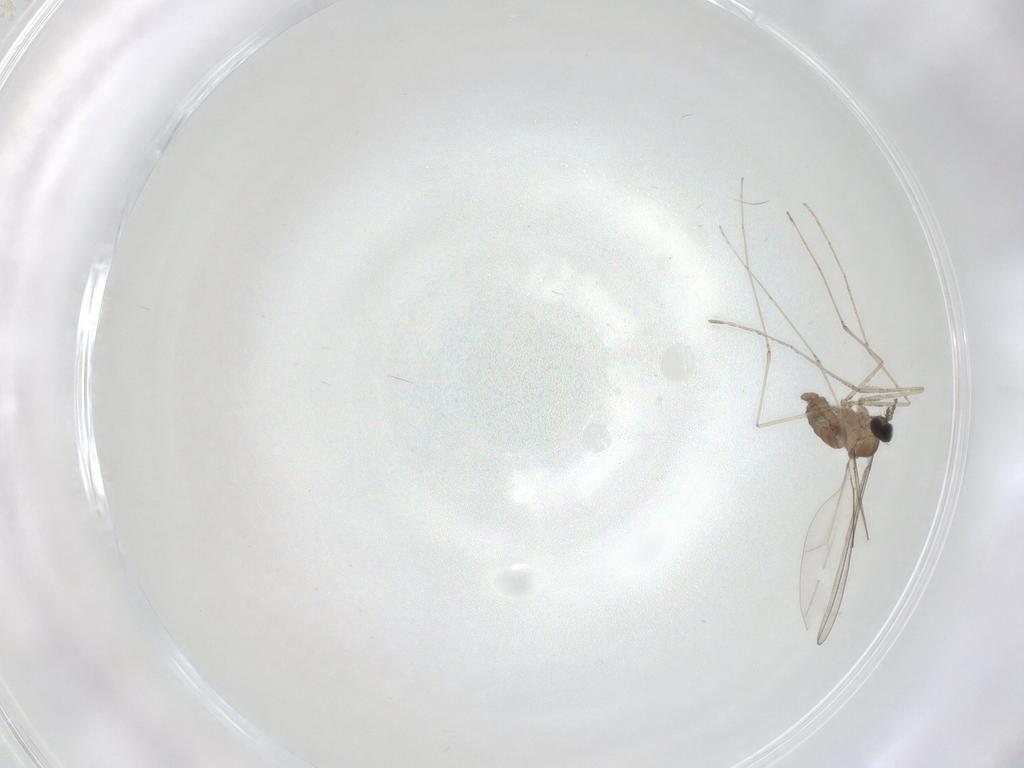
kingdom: Animalia
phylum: Arthropoda
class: Insecta
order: Diptera
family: Cecidomyiidae
